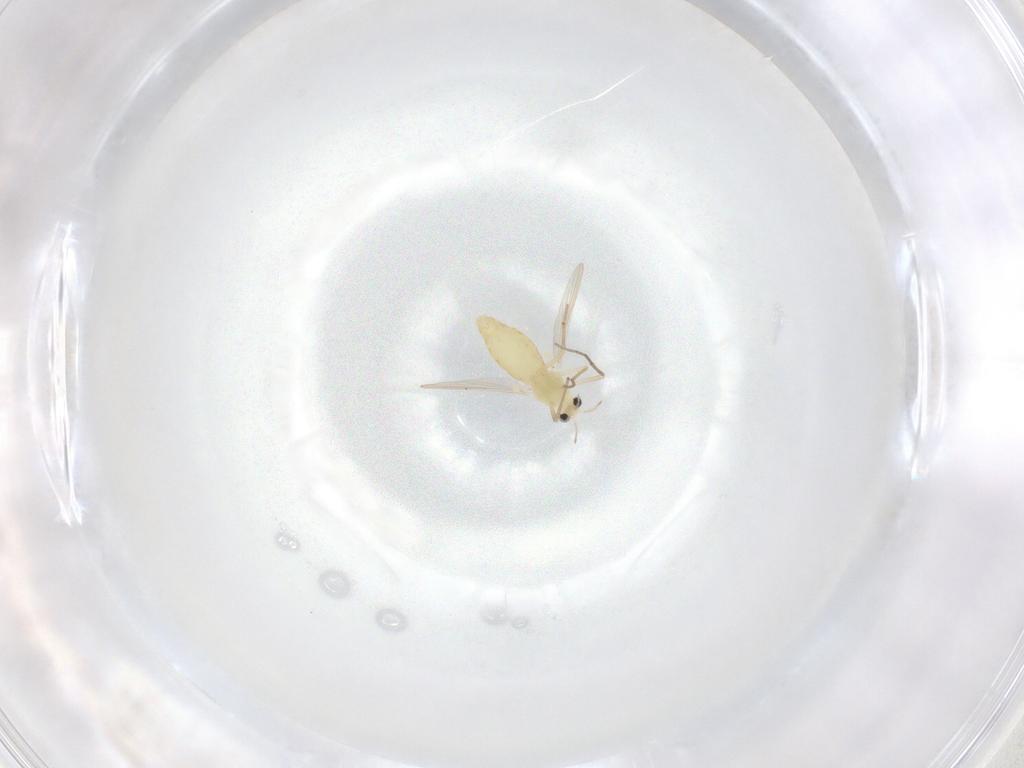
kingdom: Animalia
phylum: Arthropoda
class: Insecta
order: Diptera
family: Chironomidae
